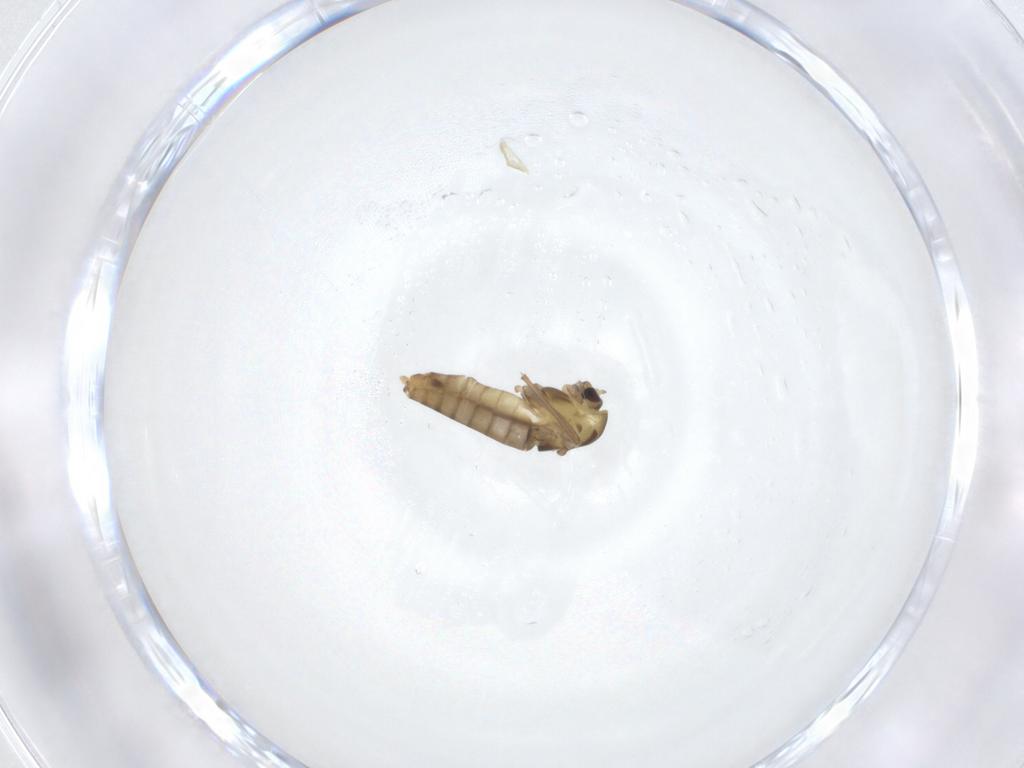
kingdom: Animalia
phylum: Arthropoda
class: Insecta
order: Diptera
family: Chironomidae
